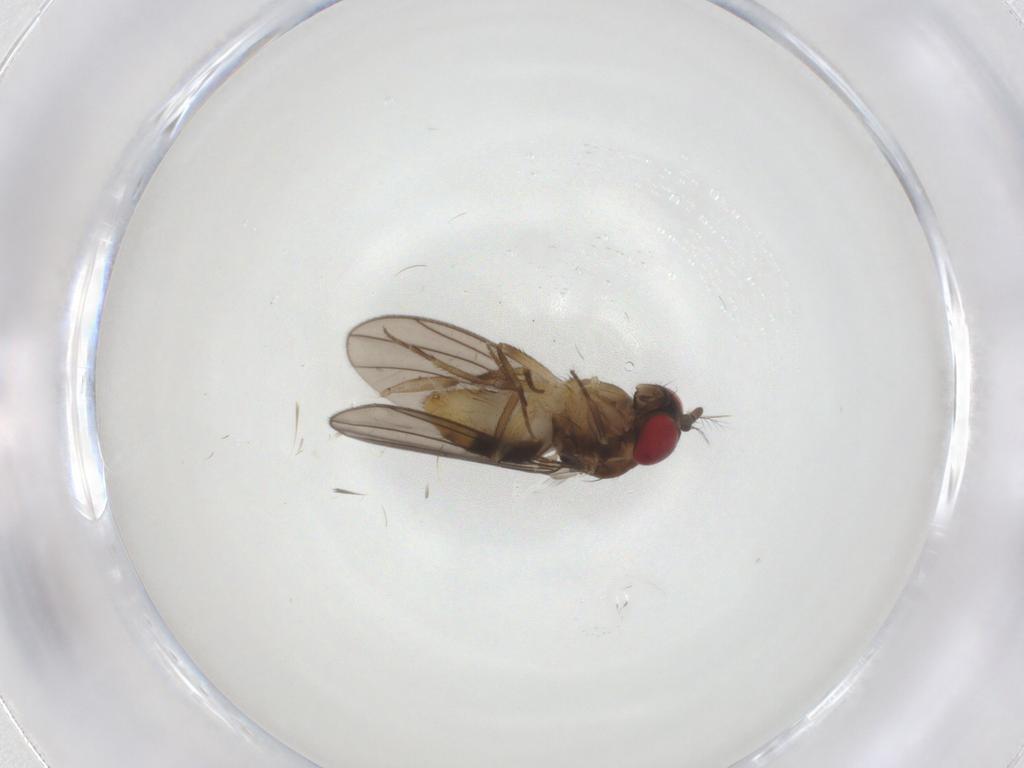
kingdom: Animalia
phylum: Arthropoda
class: Insecta
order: Diptera
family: Drosophilidae
